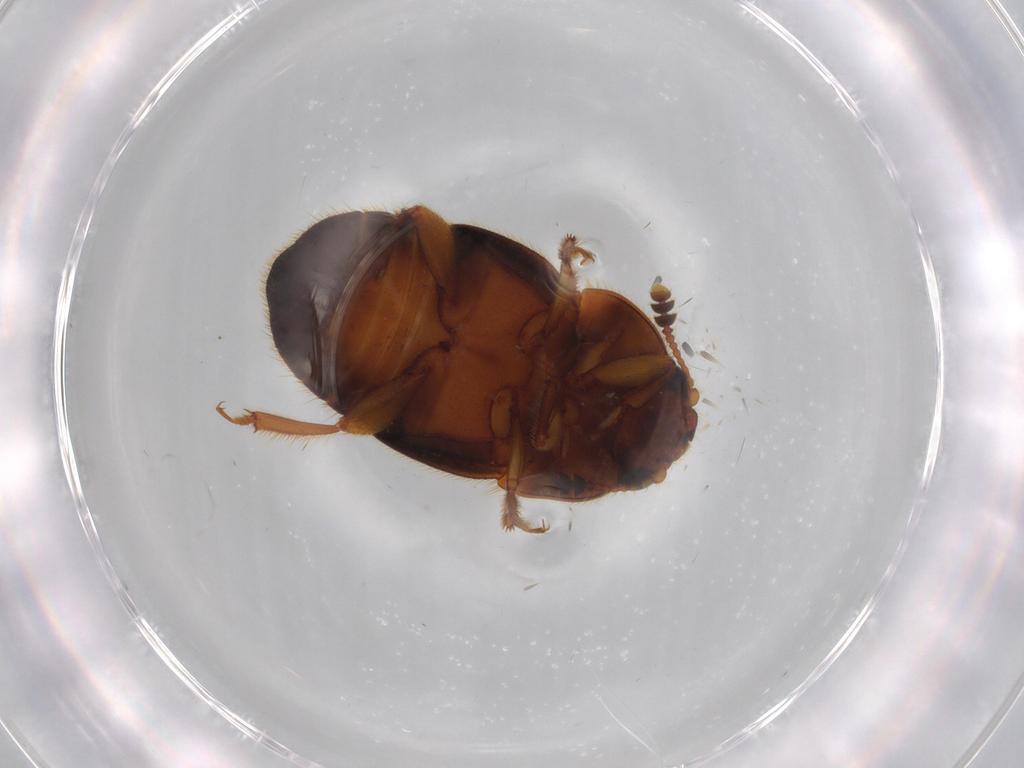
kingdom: Animalia
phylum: Arthropoda
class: Insecta
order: Coleoptera
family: Nitidulidae
